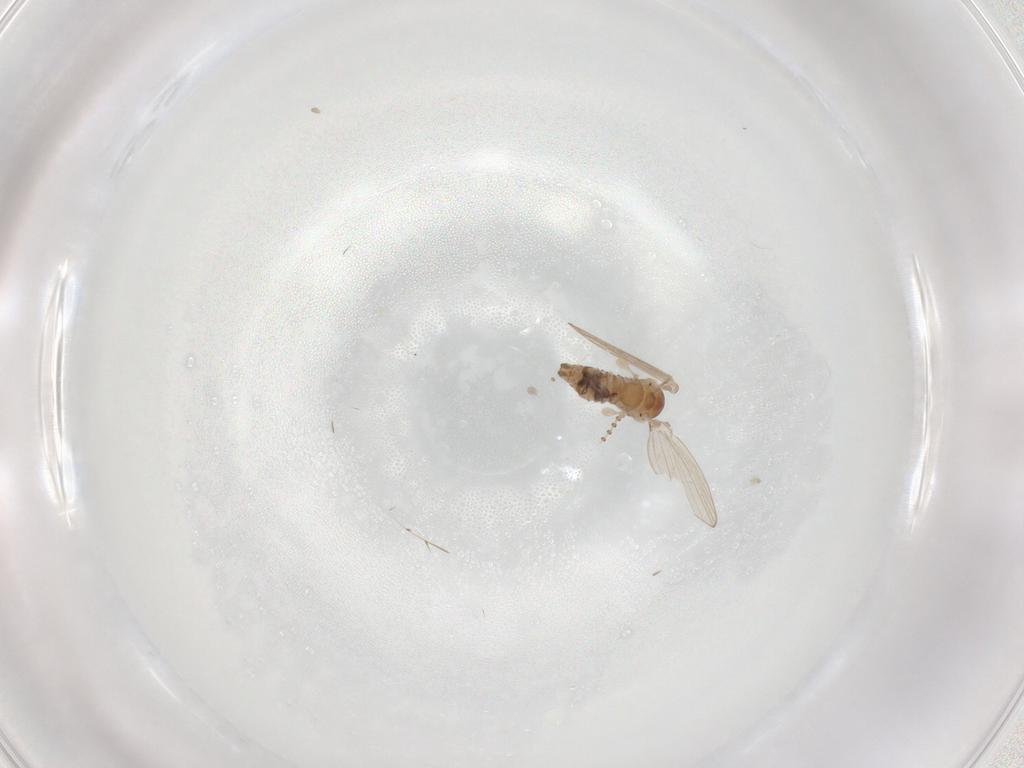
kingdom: Animalia
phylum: Arthropoda
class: Insecta
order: Diptera
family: Psychodidae
